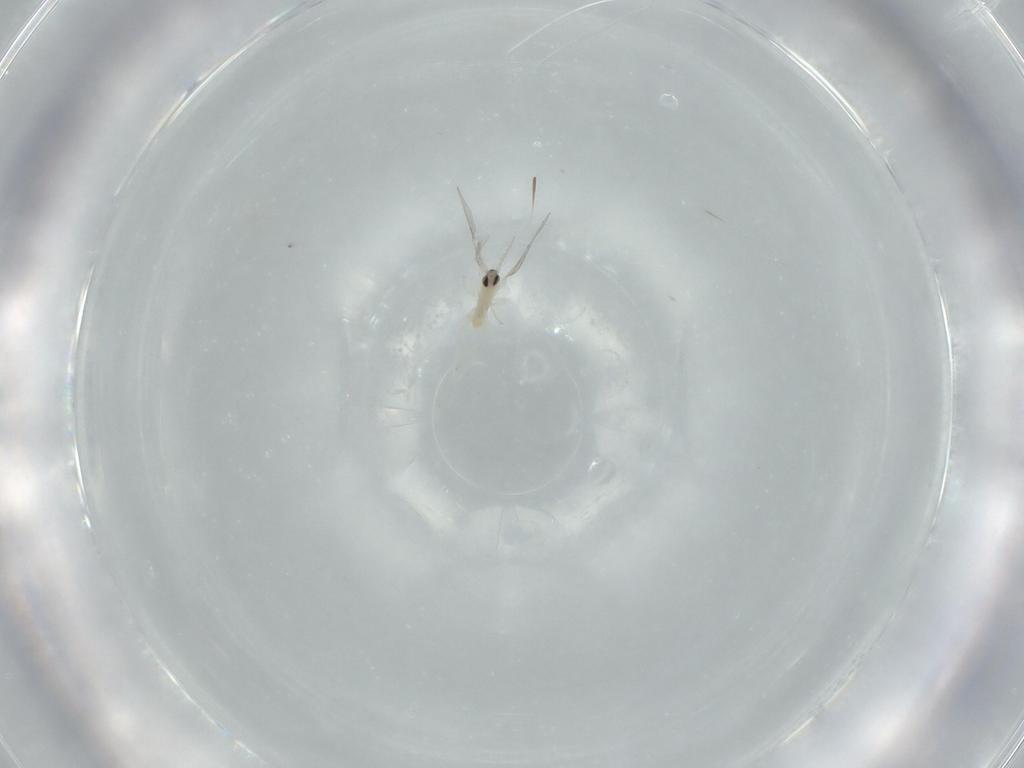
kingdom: Animalia
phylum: Arthropoda
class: Insecta
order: Diptera
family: Cecidomyiidae
